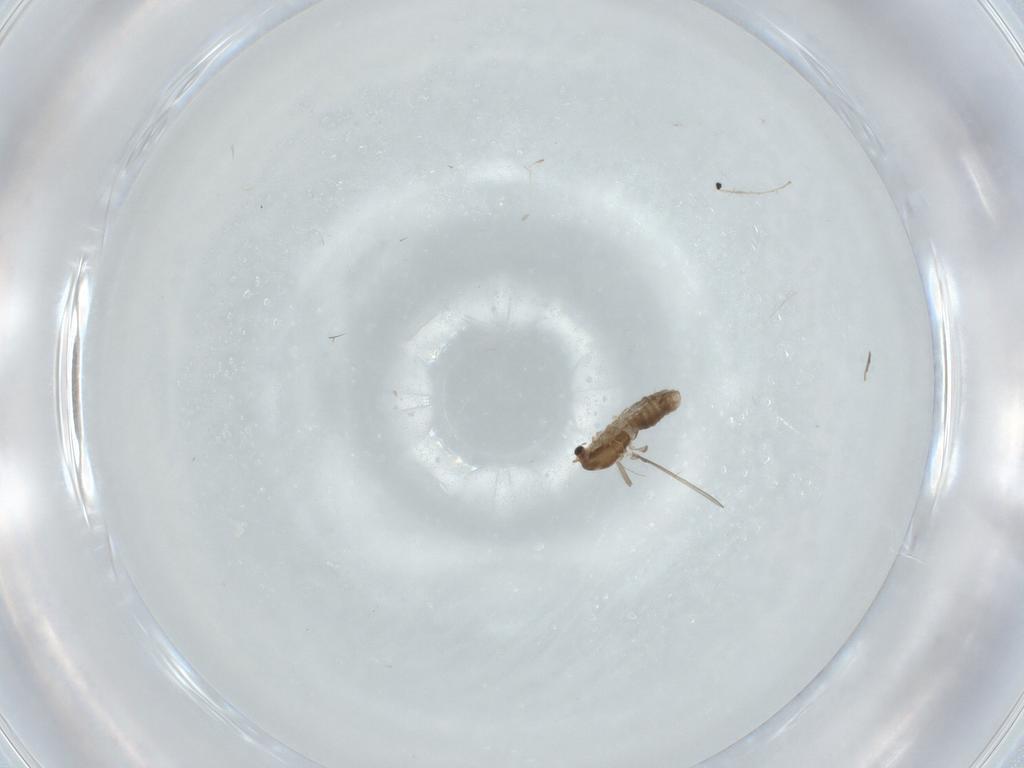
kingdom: Animalia
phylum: Arthropoda
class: Insecta
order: Diptera
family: Chironomidae
